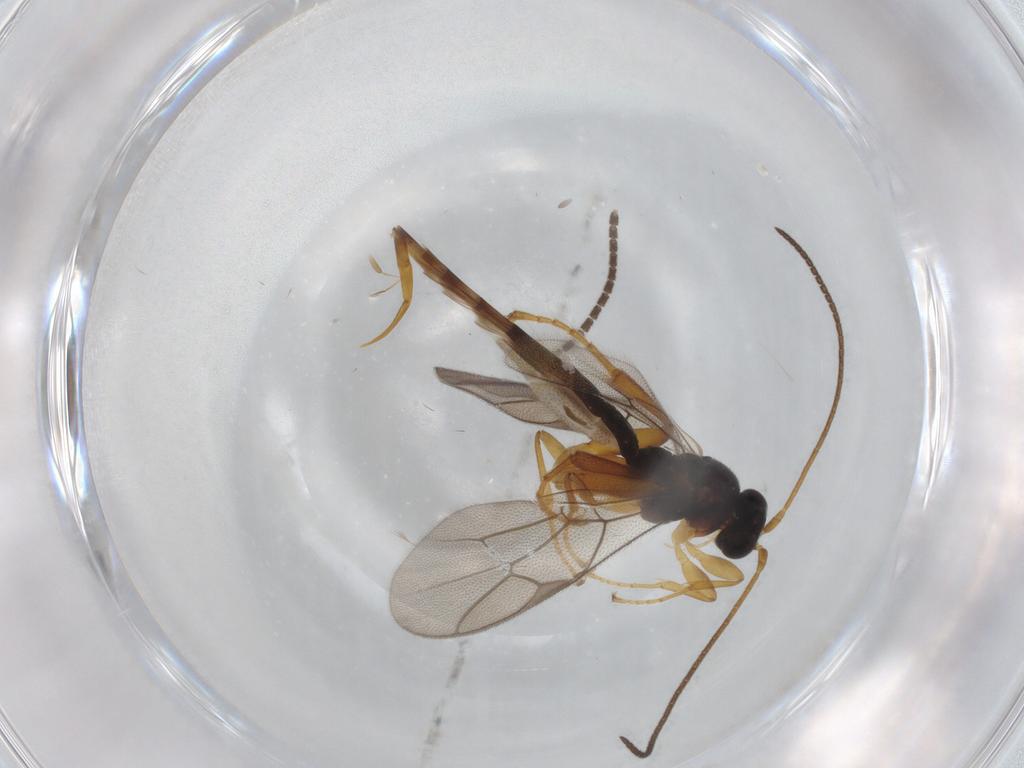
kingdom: Animalia
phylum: Arthropoda
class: Insecta
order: Hymenoptera
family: Ichneumonidae
